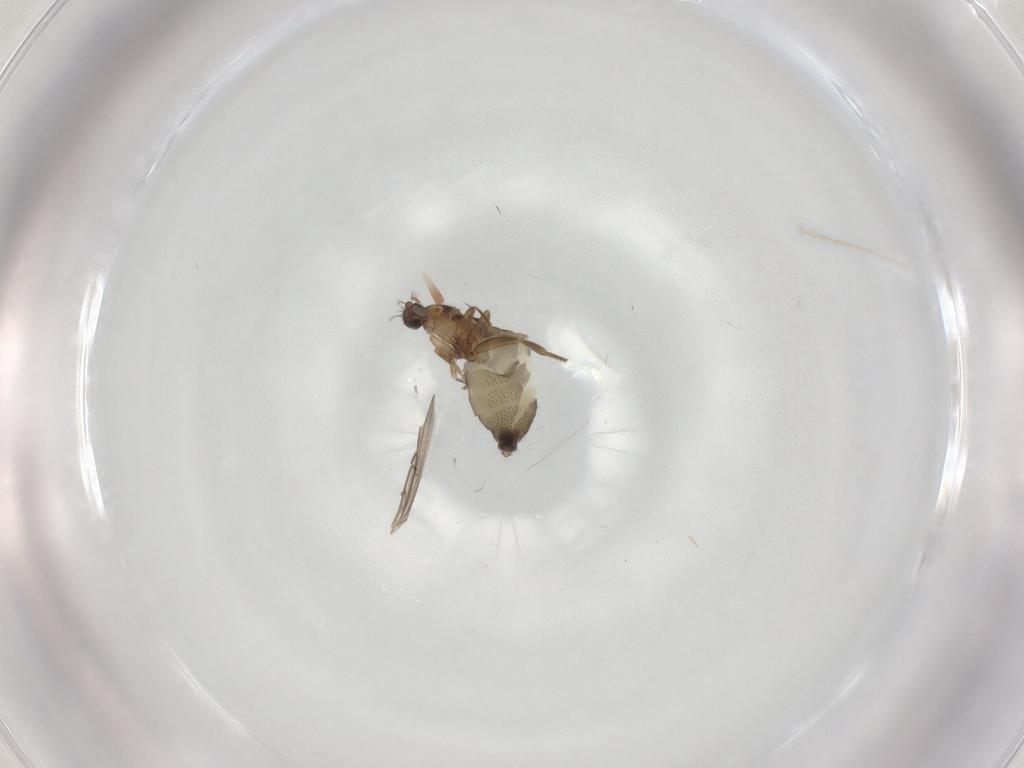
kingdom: Animalia
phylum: Arthropoda
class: Insecta
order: Diptera
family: Phoridae
